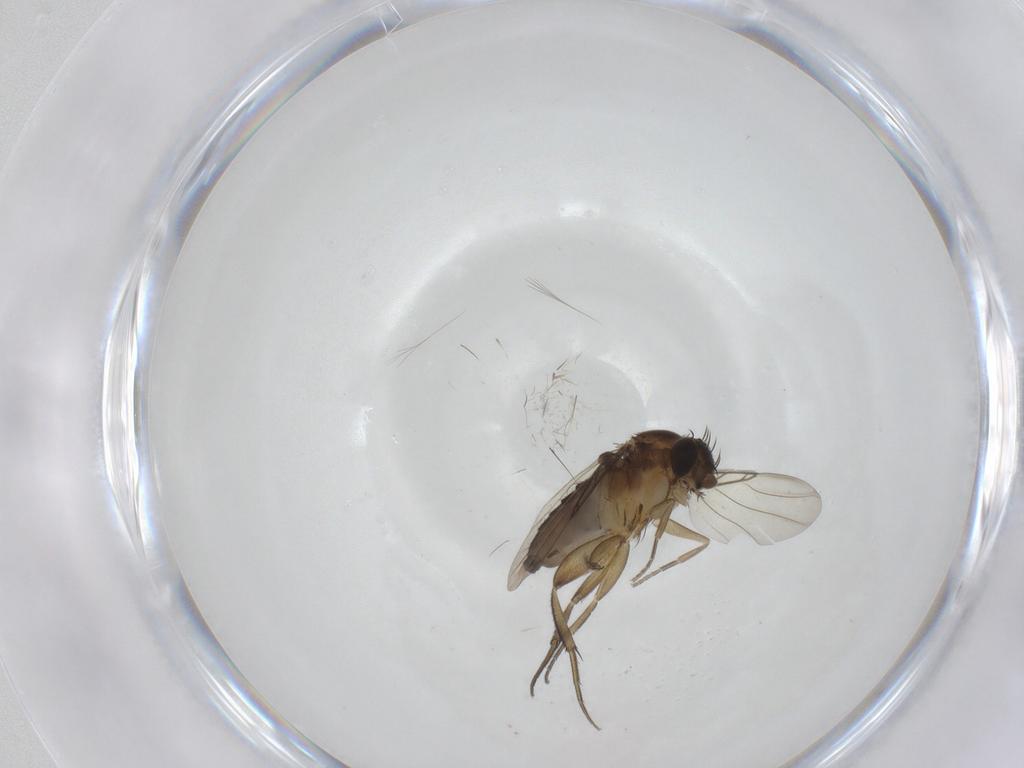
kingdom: Animalia
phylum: Arthropoda
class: Insecta
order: Diptera
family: Phoridae
